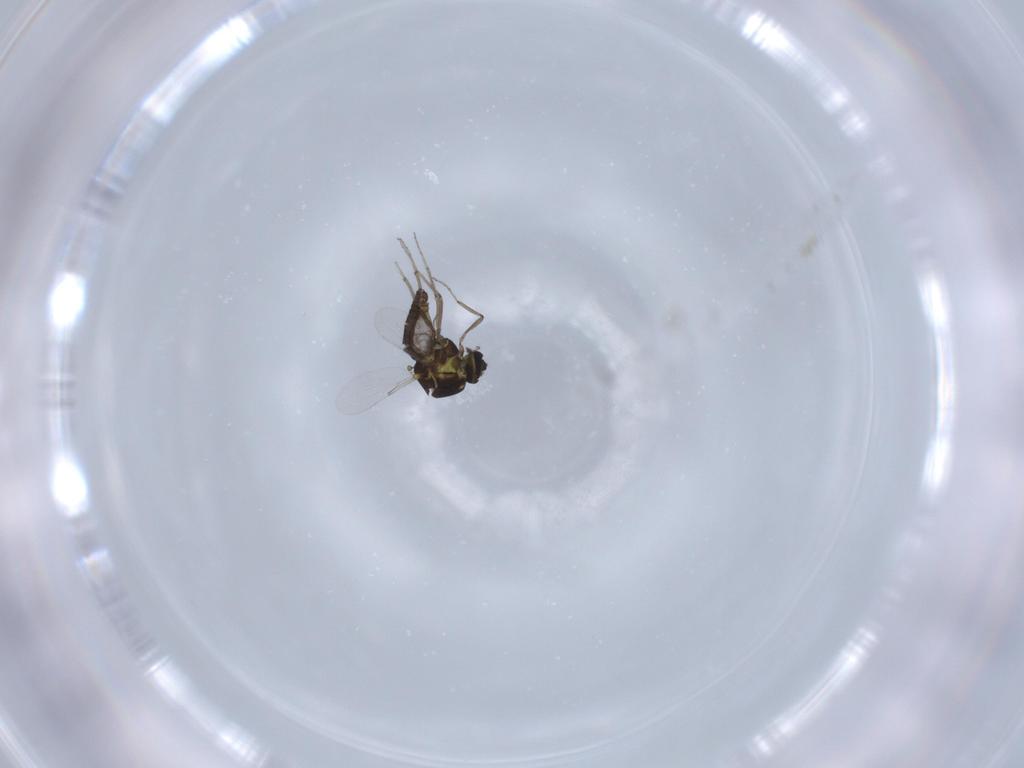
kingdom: Animalia
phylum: Arthropoda
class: Insecta
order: Diptera
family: Ceratopogonidae
